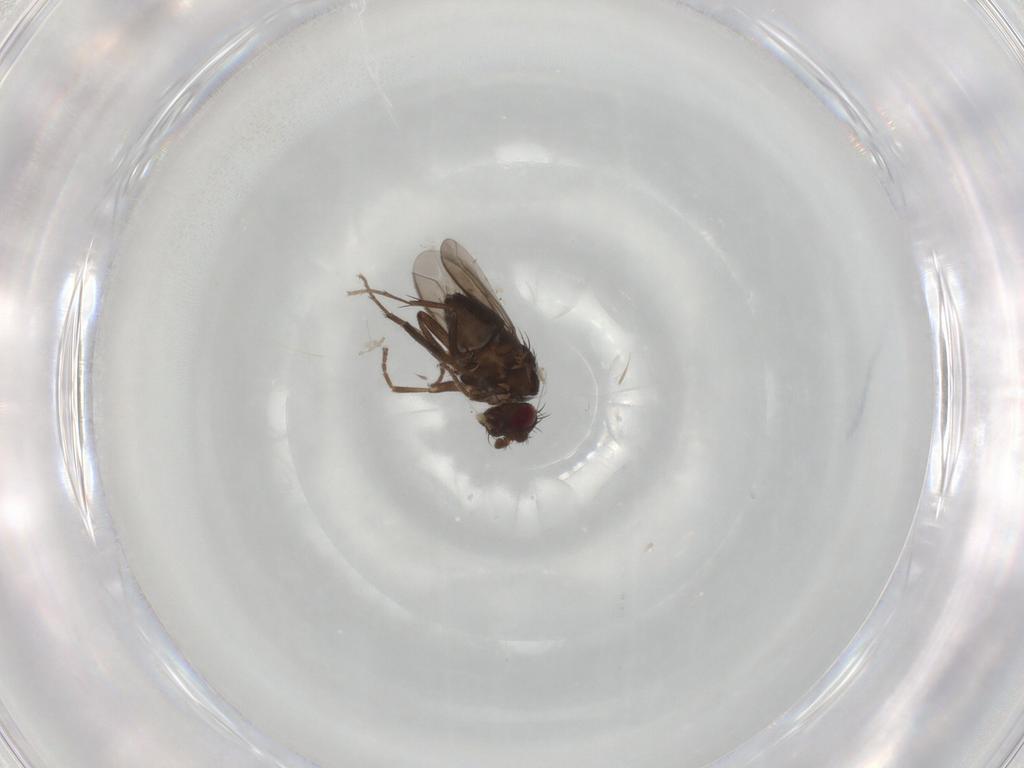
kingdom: Animalia
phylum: Arthropoda
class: Insecta
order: Diptera
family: Sphaeroceridae
